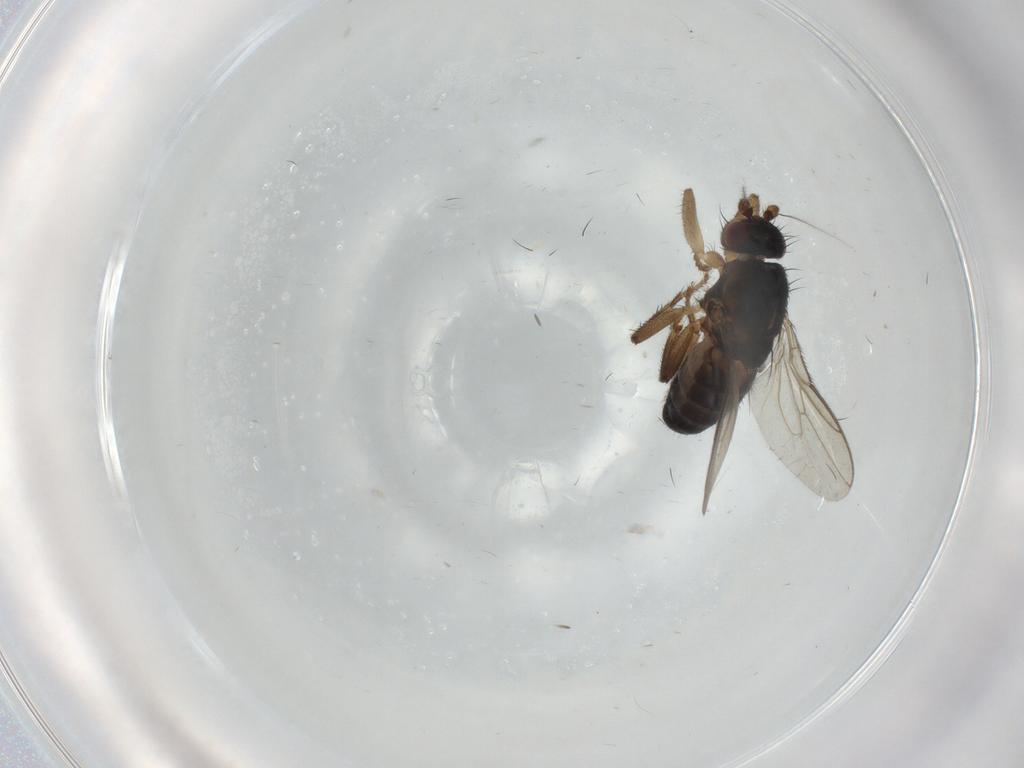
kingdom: Animalia
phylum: Arthropoda
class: Insecta
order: Diptera
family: Sphaeroceridae
